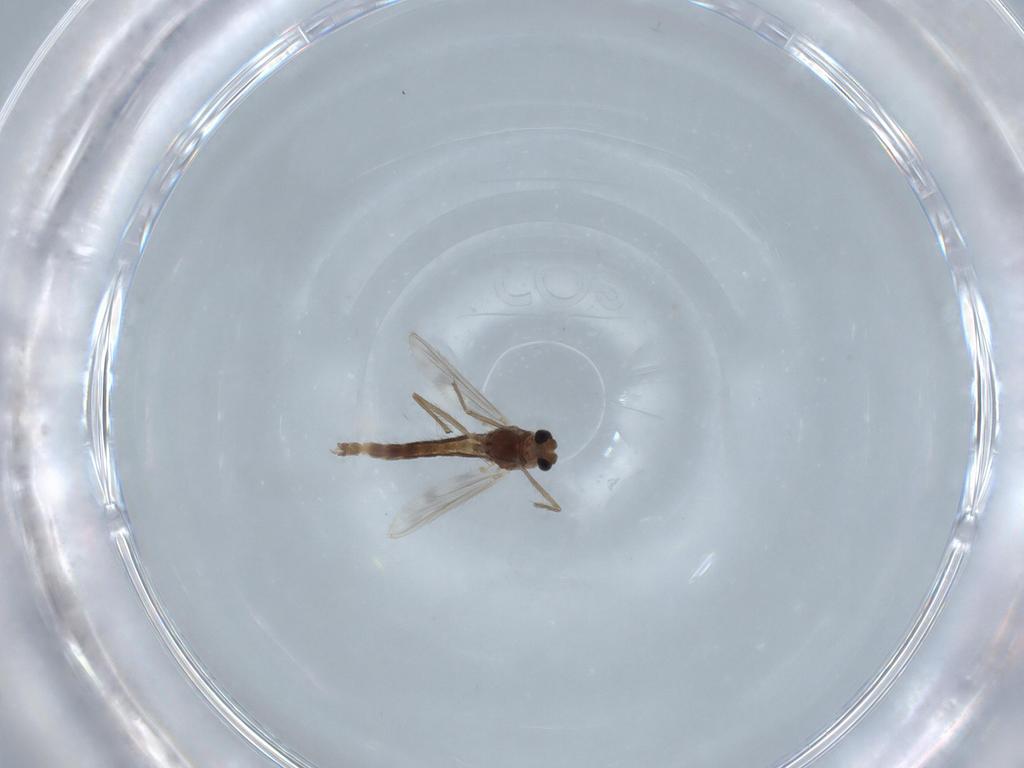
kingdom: Animalia
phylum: Arthropoda
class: Insecta
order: Diptera
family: Chironomidae
